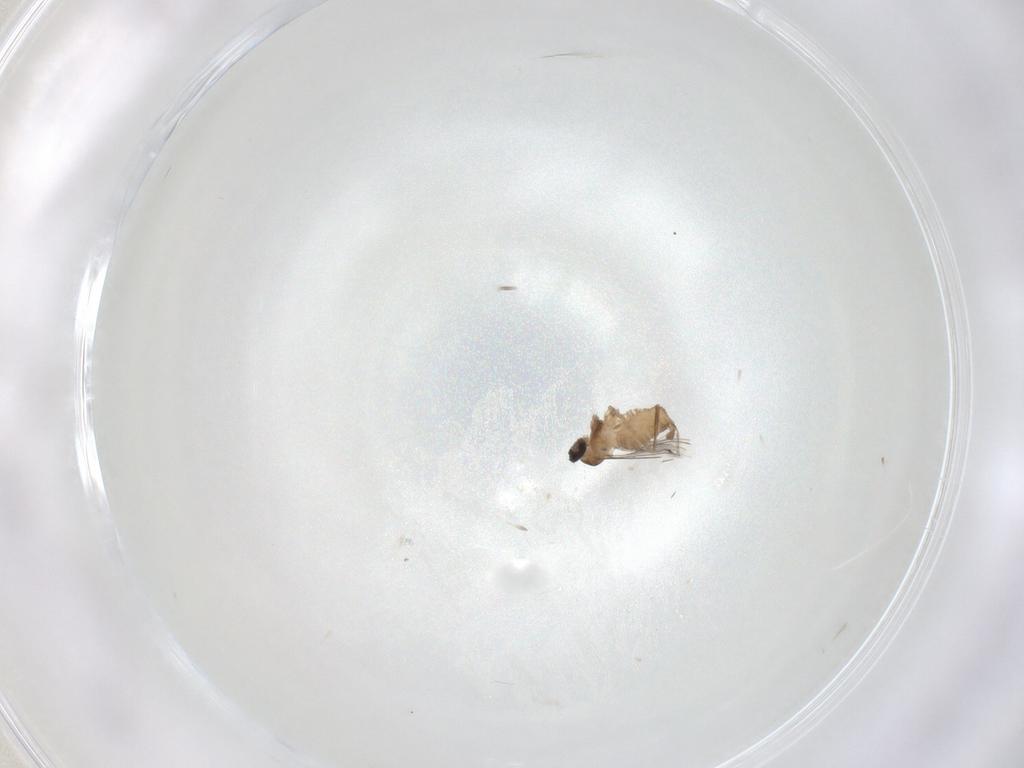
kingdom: Animalia
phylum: Arthropoda
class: Insecta
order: Diptera
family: Cecidomyiidae
